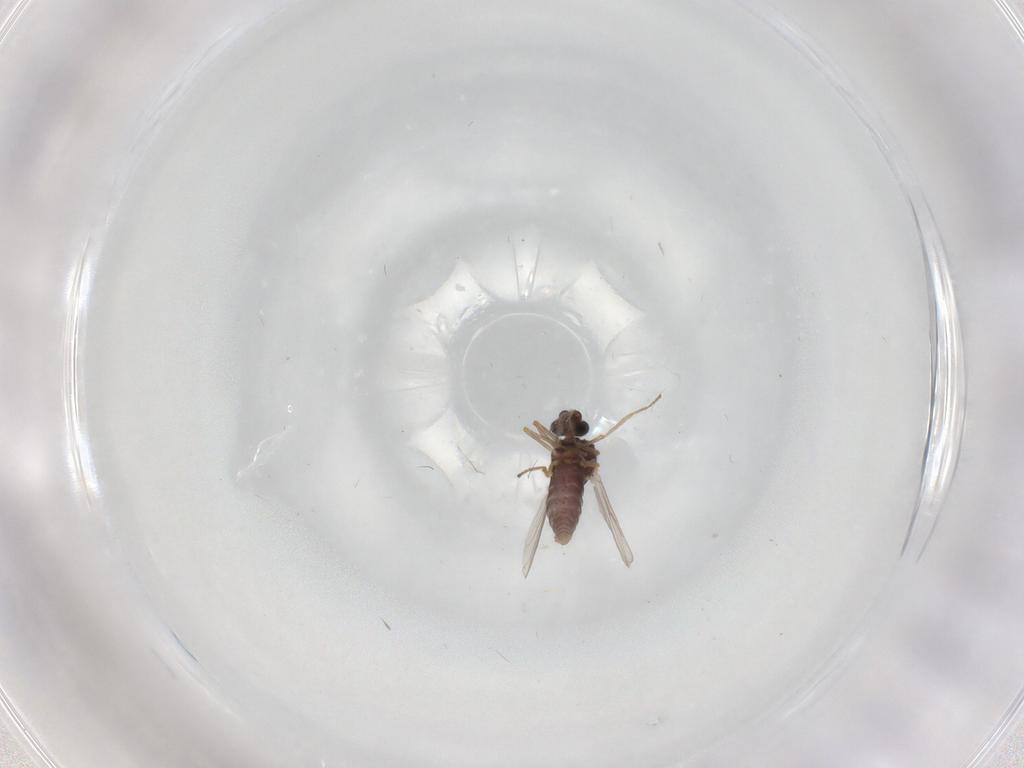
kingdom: Animalia
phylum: Arthropoda
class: Insecta
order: Diptera
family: Ceratopogonidae
